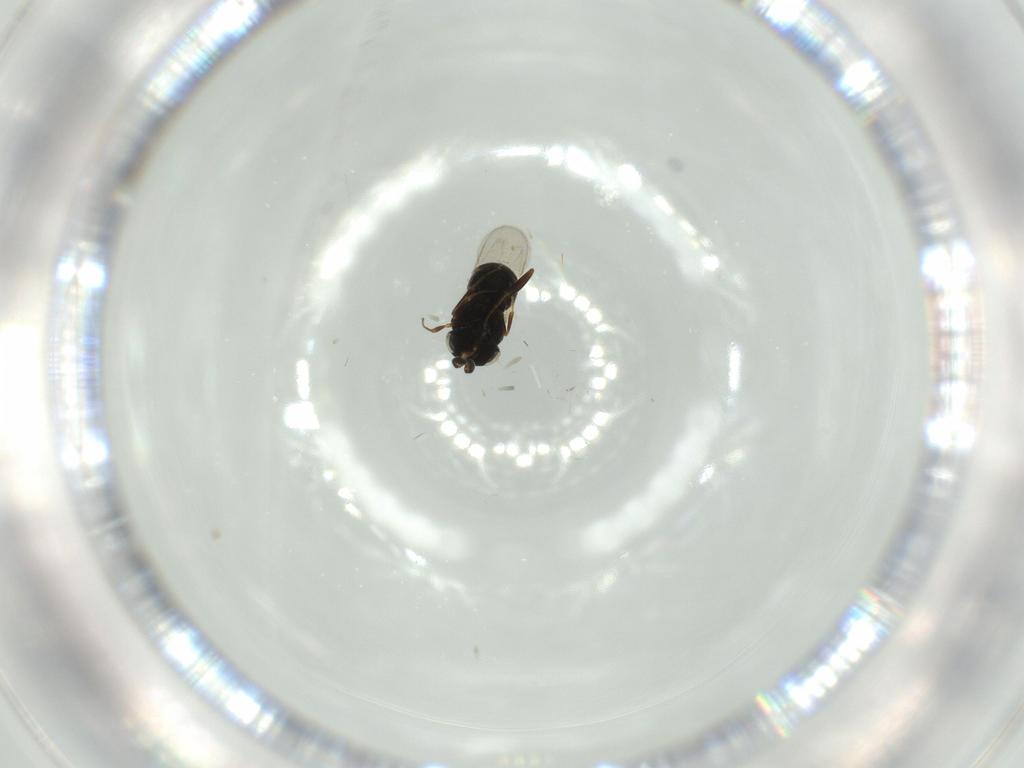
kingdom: Animalia
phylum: Arthropoda
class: Insecta
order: Hymenoptera
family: Scelionidae
